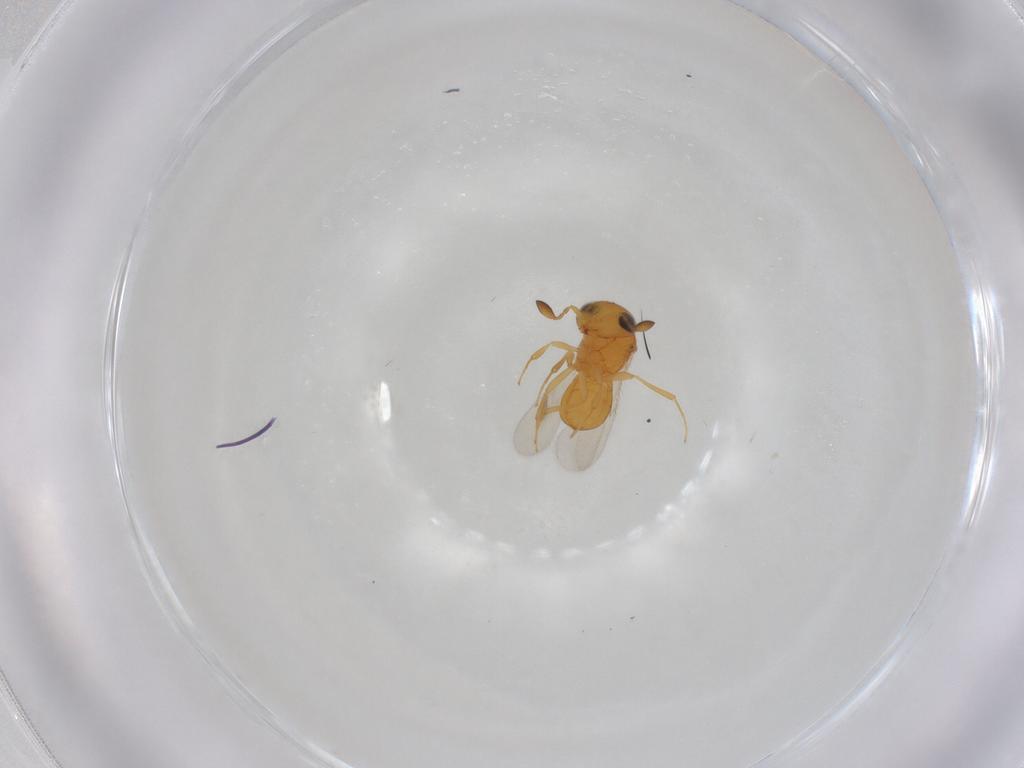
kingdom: Animalia
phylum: Arthropoda
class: Insecta
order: Hymenoptera
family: Scelionidae
